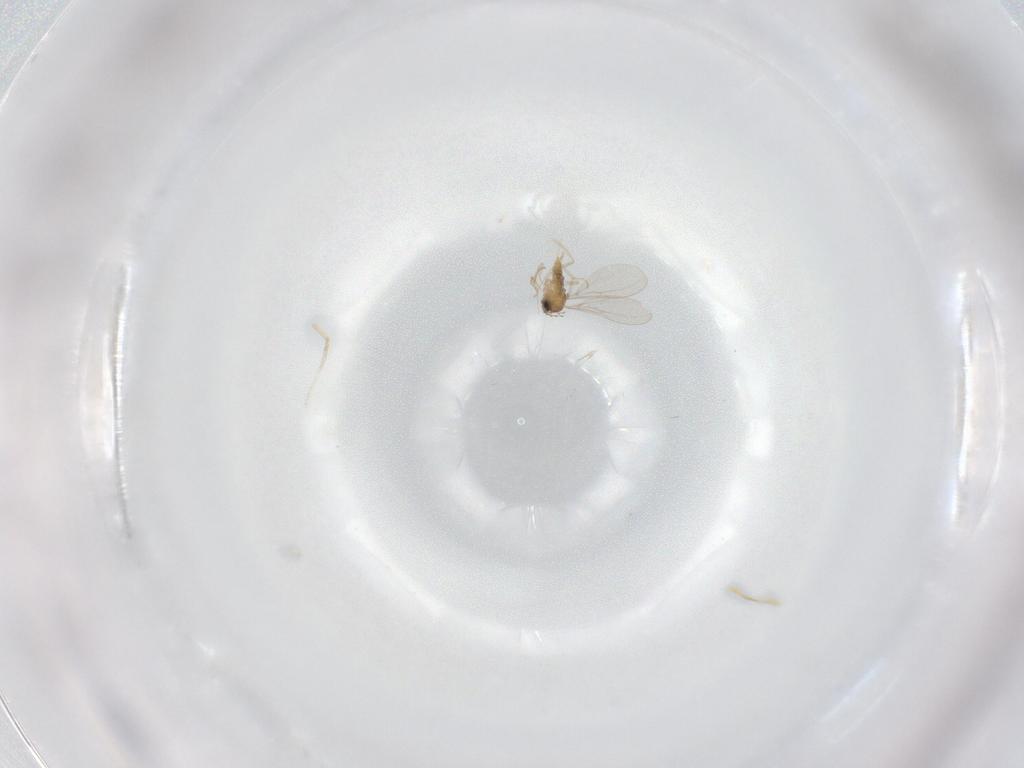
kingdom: Animalia
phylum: Arthropoda
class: Insecta
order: Diptera
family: Cecidomyiidae
